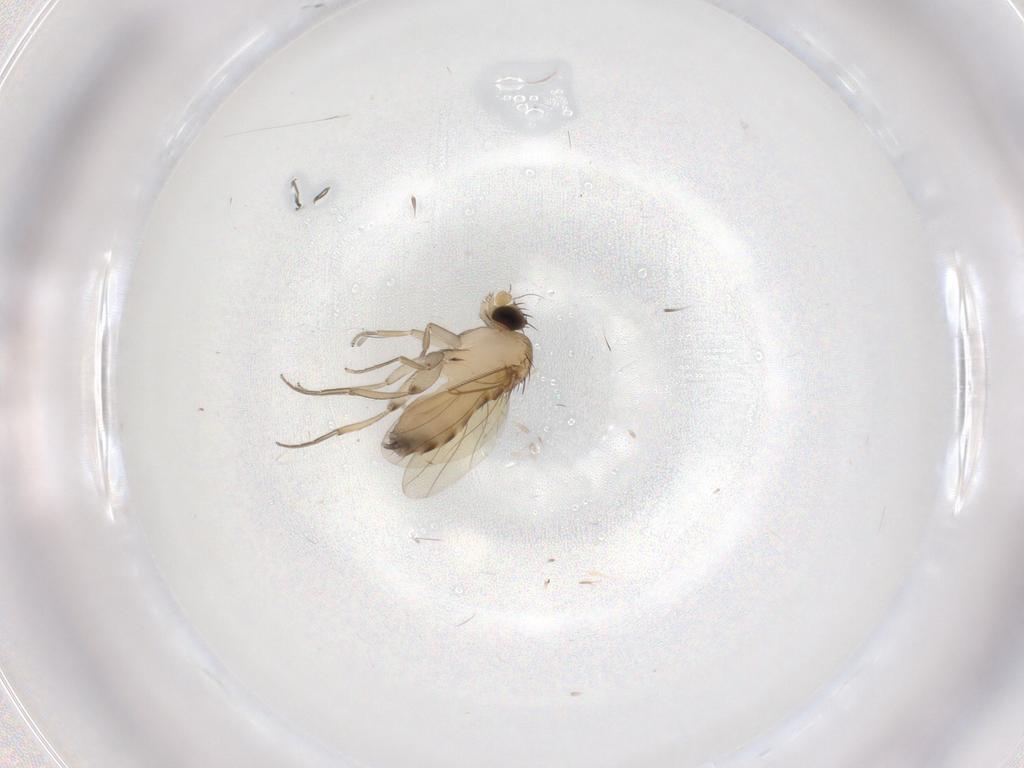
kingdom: Animalia
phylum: Arthropoda
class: Insecta
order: Diptera
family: Phoridae
